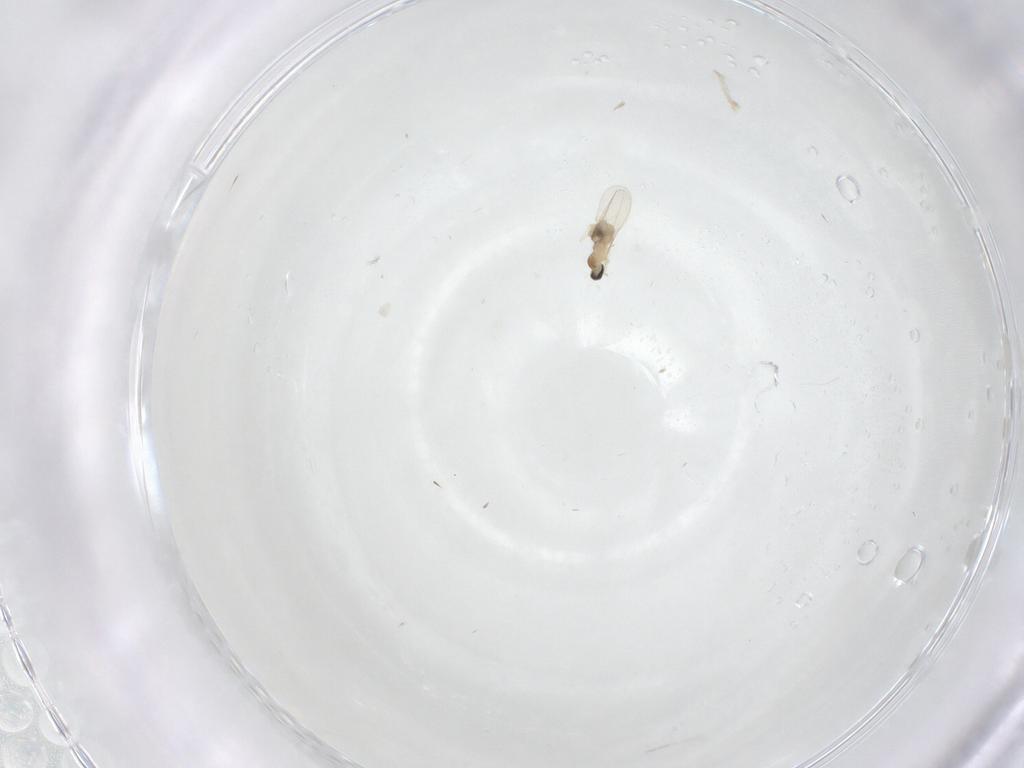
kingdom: Animalia
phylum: Arthropoda
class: Insecta
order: Diptera
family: Cecidomyiidae
